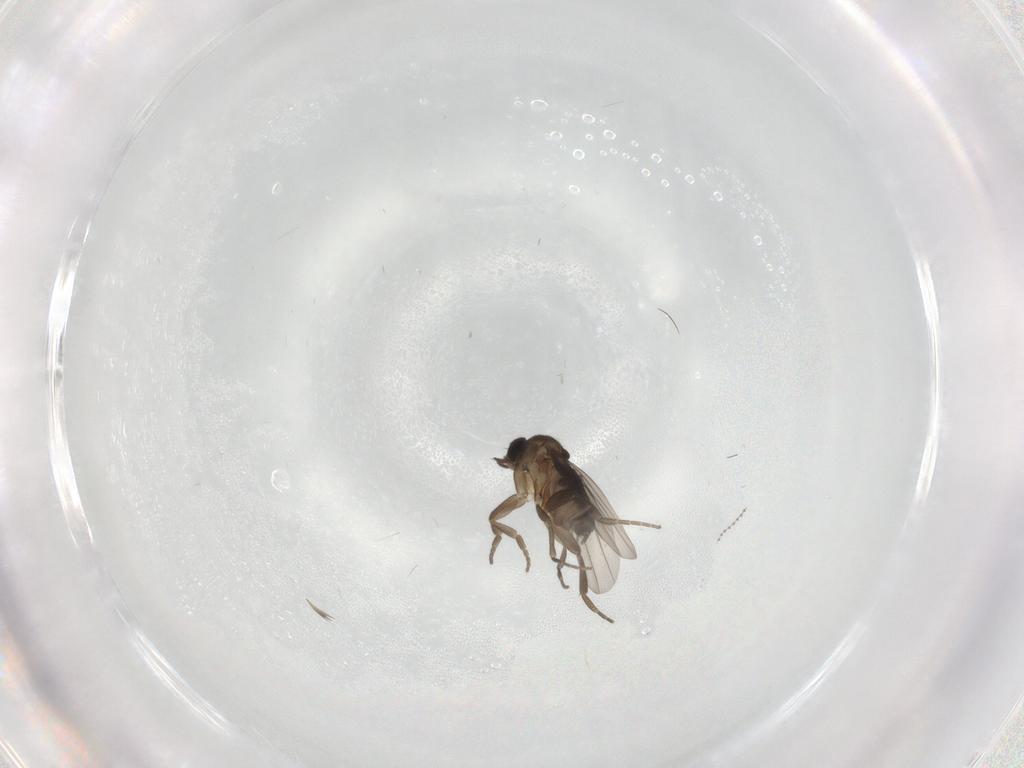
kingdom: Animalia
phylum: Arthropoda
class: Insecta
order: Diptera
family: Phoridae
